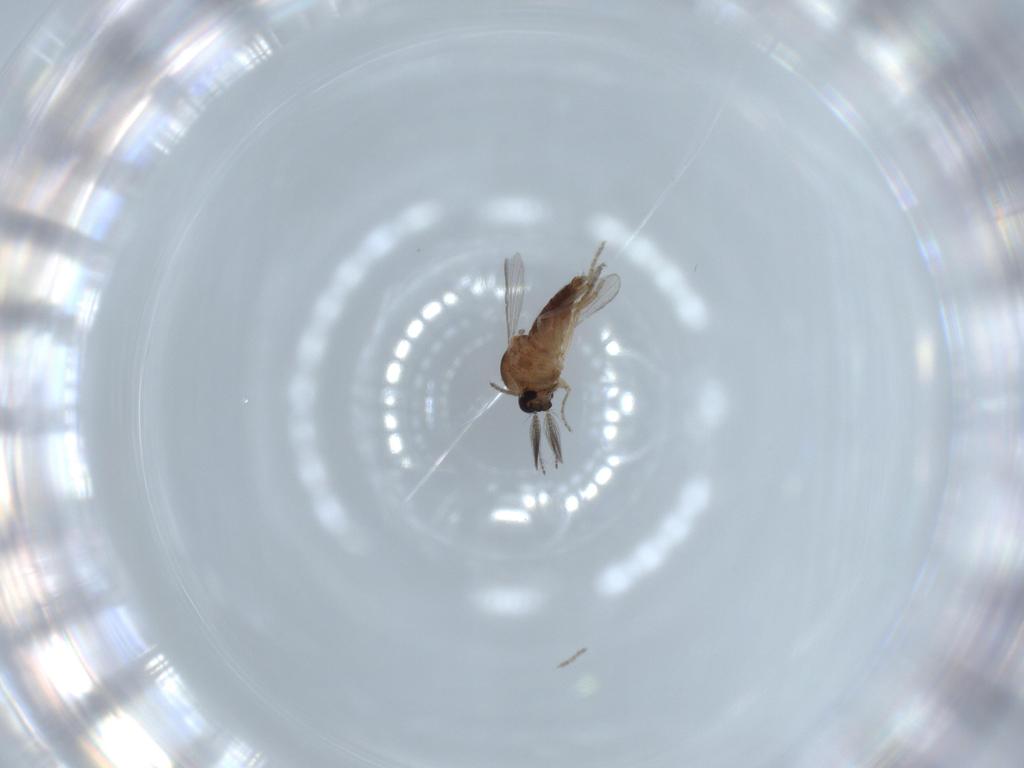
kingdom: Animalia
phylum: Arthropoda
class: Insecta
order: Diptera
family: Ceratopogonidae
